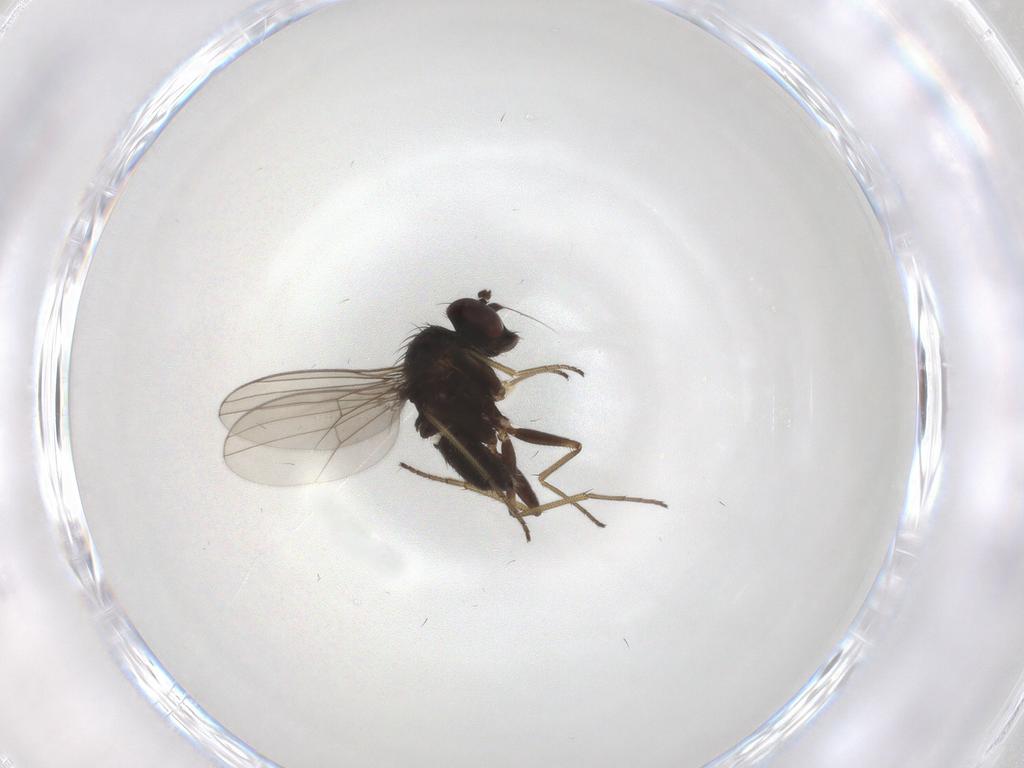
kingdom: Animalia
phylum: Arthropoda
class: Insecta
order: Diptera
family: Dolichopodidae
